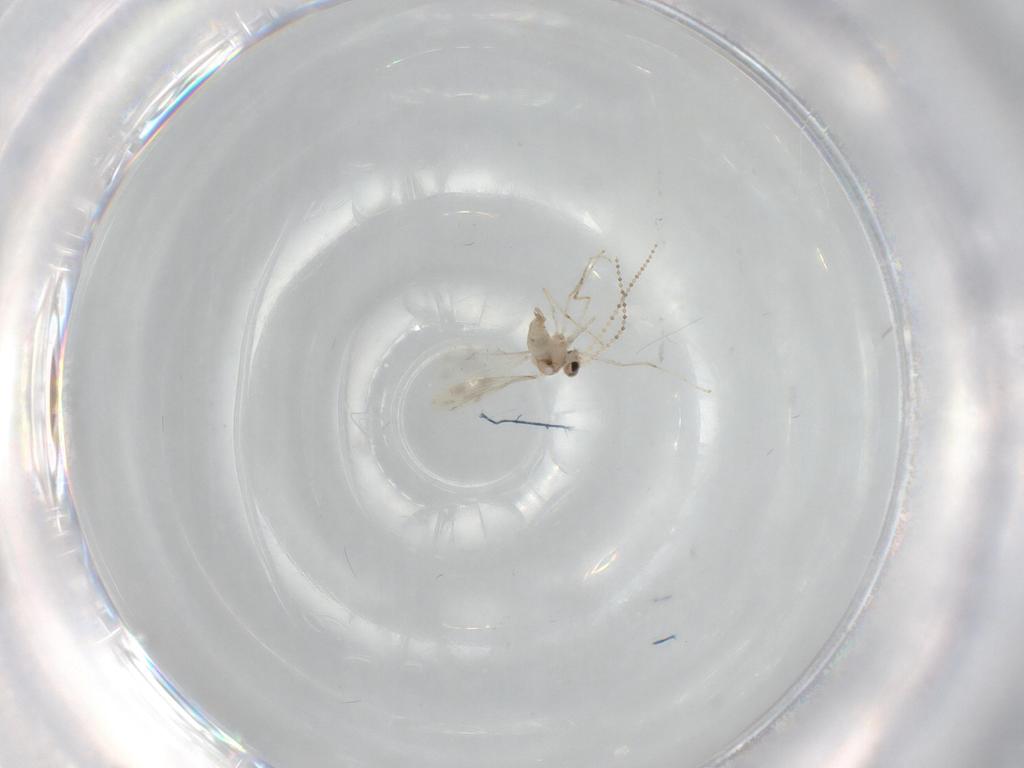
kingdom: Animalia
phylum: Arthropoda
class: Insecta
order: Diptera
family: Cecidomyiidae
